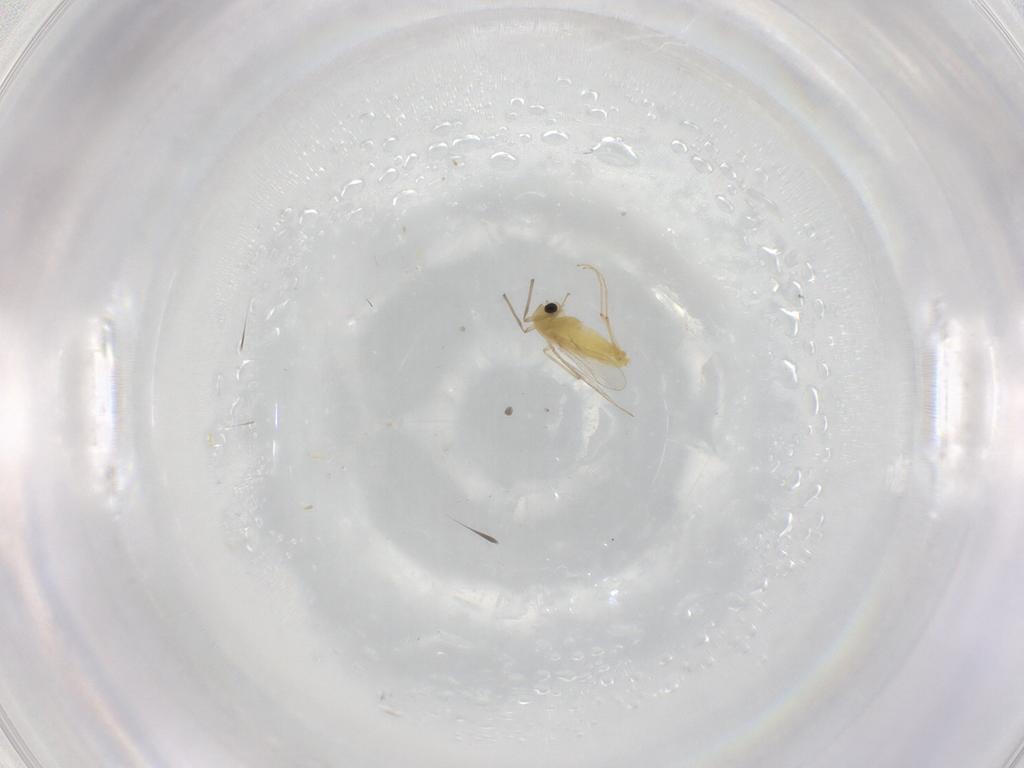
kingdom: Animalia
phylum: Arthropoda
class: Insecta
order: Diptera
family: Chironomidae
